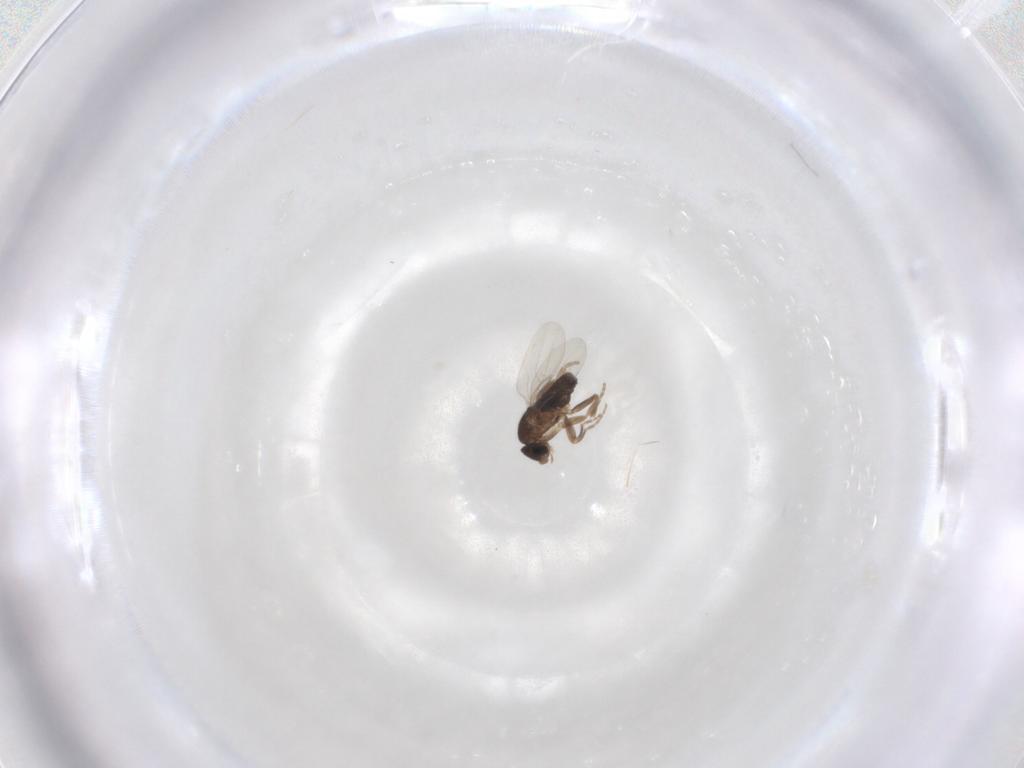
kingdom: Animalia
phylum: Arthropoda
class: Insecta
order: Diptera
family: Phoridae
